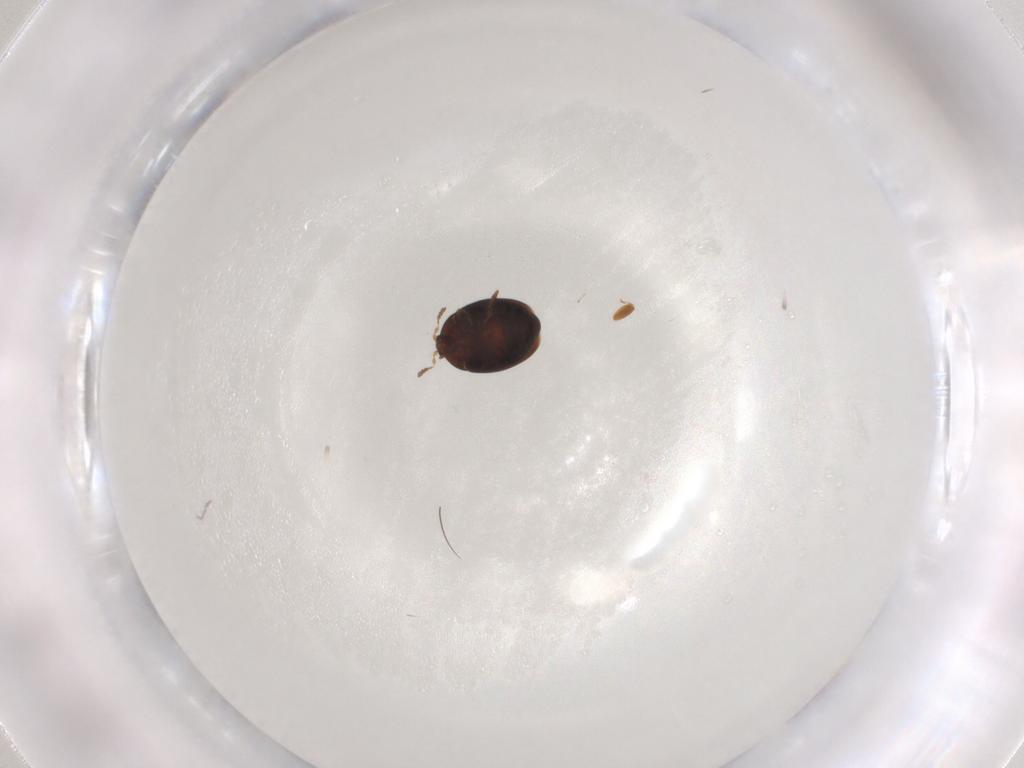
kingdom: Animalia
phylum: Arthropoda
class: Insecta
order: Coleoptera
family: Corylophidae
